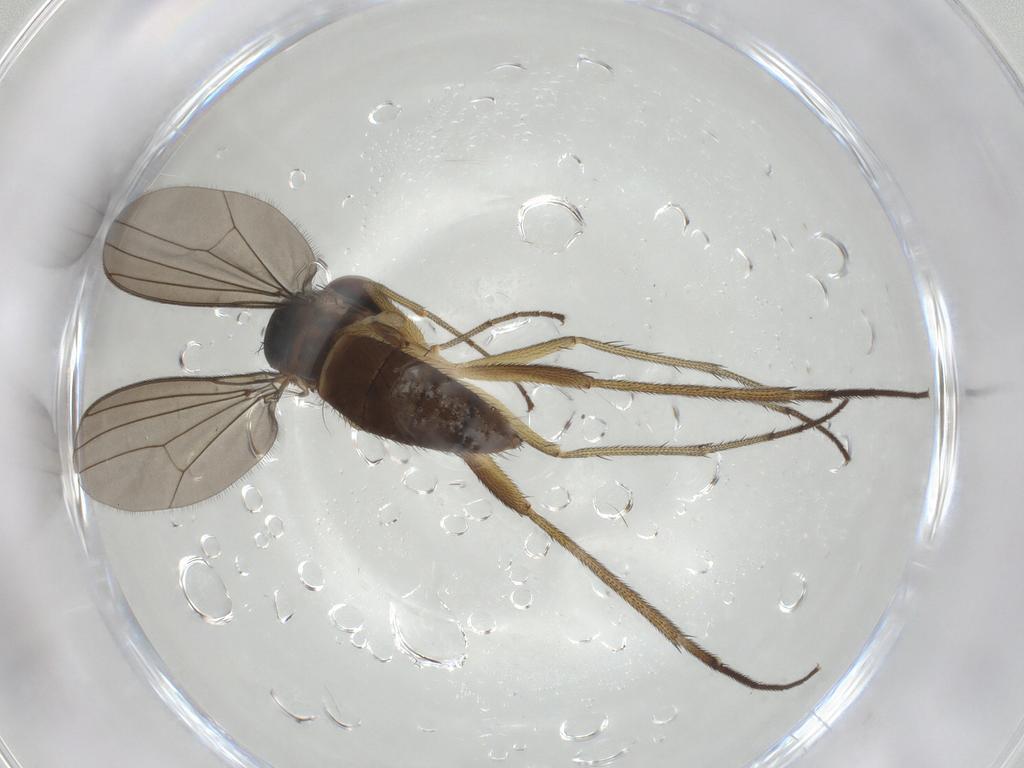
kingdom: Animalia
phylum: Arthropoda
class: Insecta
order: Diptera
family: Dolichopodidae
